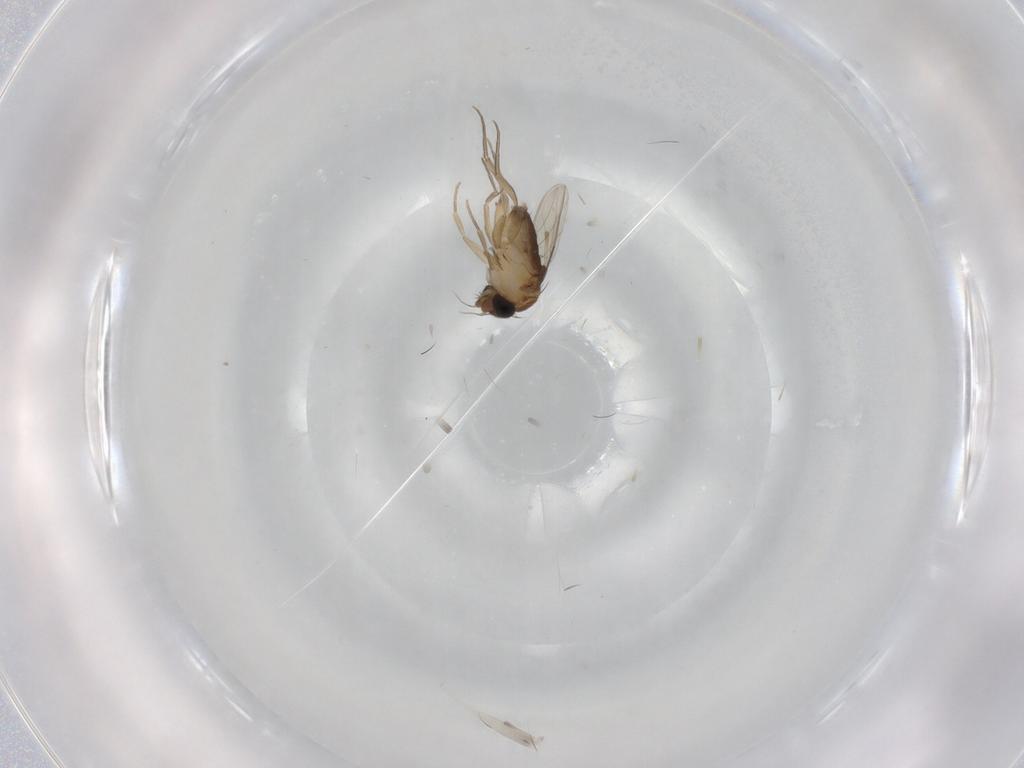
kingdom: Animalia
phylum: Arthropoda
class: Insecta
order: Diptera
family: Phoridae
